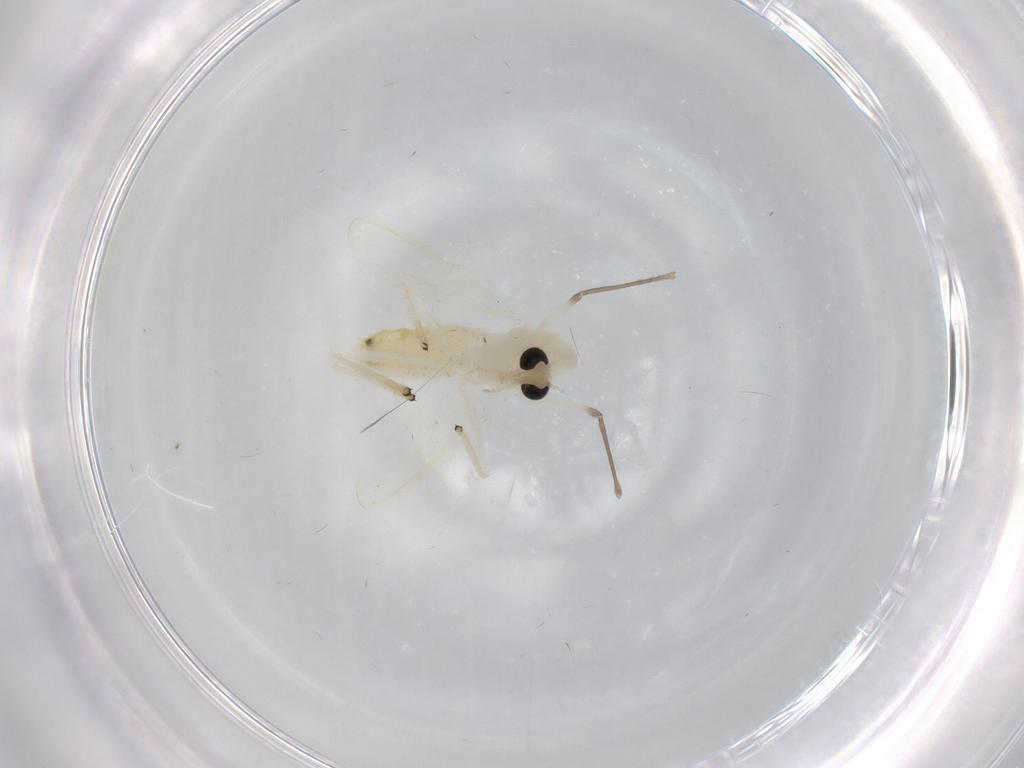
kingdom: Animalia
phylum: Arthropoda
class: Insecta
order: Diptera
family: Chironomidae
